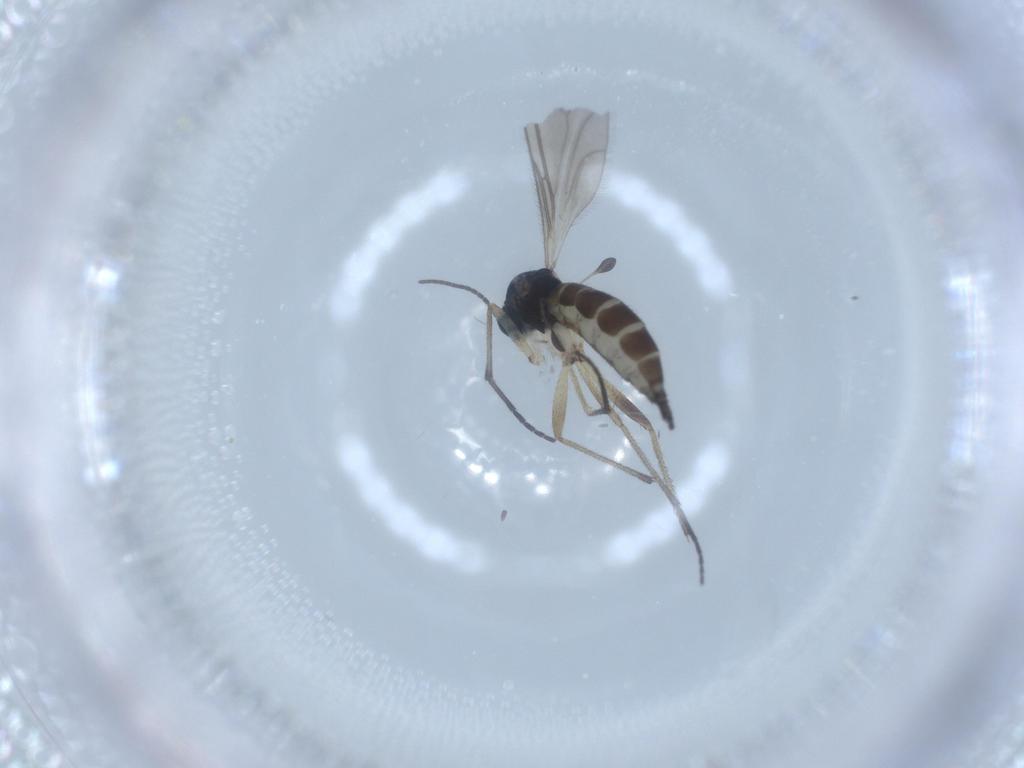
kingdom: Animalia
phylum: Arthropoda
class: Insecta
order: Diptera
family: Sciaridae
